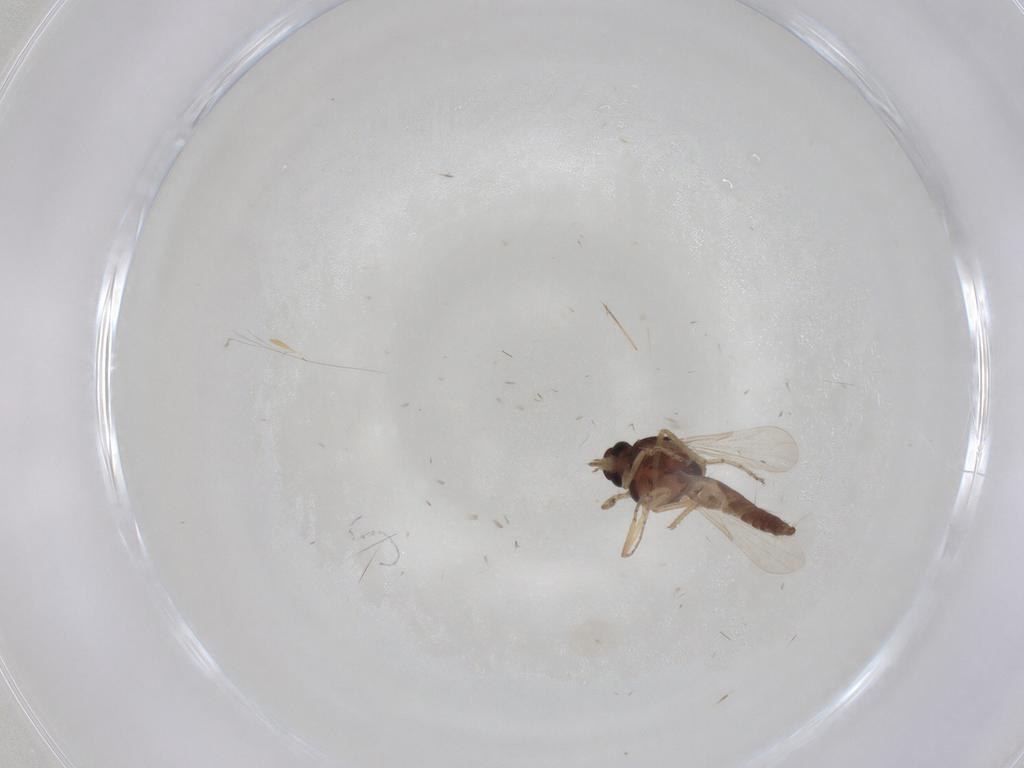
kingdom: Animalia
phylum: Arthropoda
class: Insecta
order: Diptera
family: Ceratopogonidae
